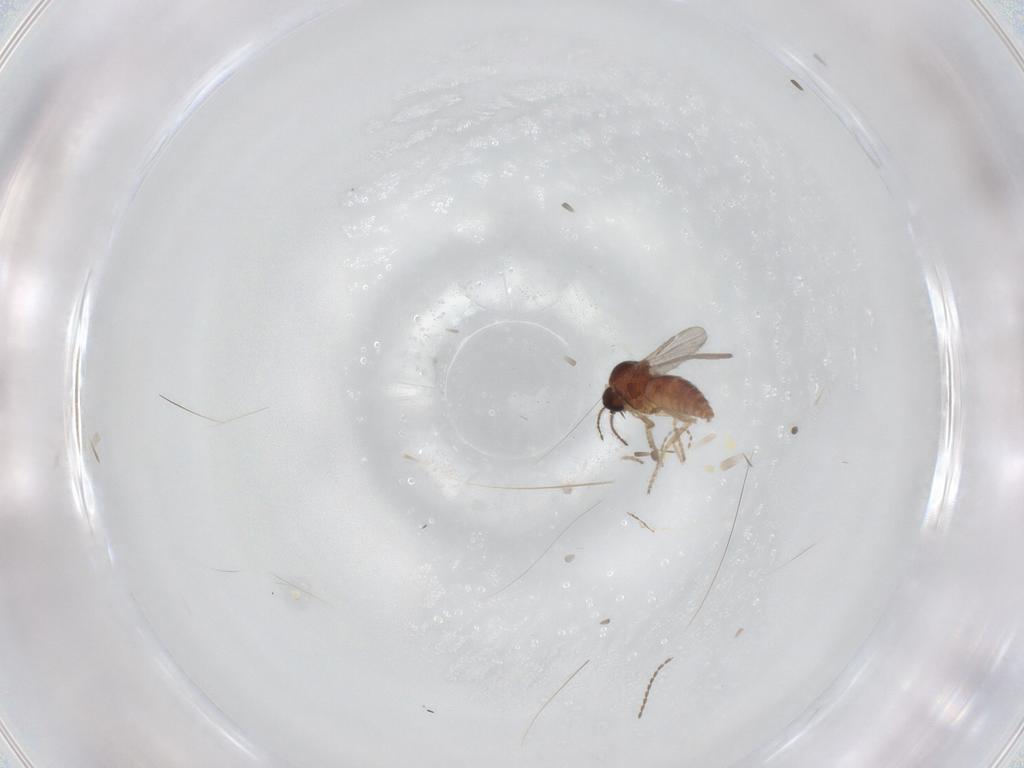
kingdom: Animalia
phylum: Arthropoda
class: Insecta
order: Diptera
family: Ceratopogonidae
